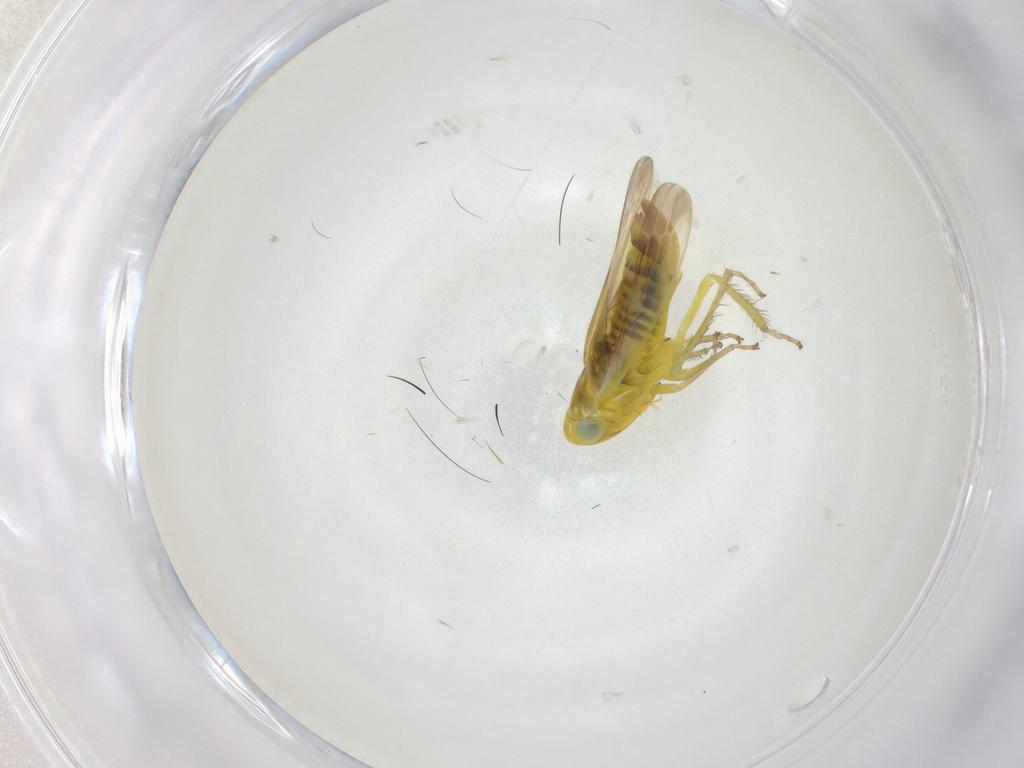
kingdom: Animalia
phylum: Arthropoda
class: Insecta
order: Hemiptera
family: Cicadellidae
